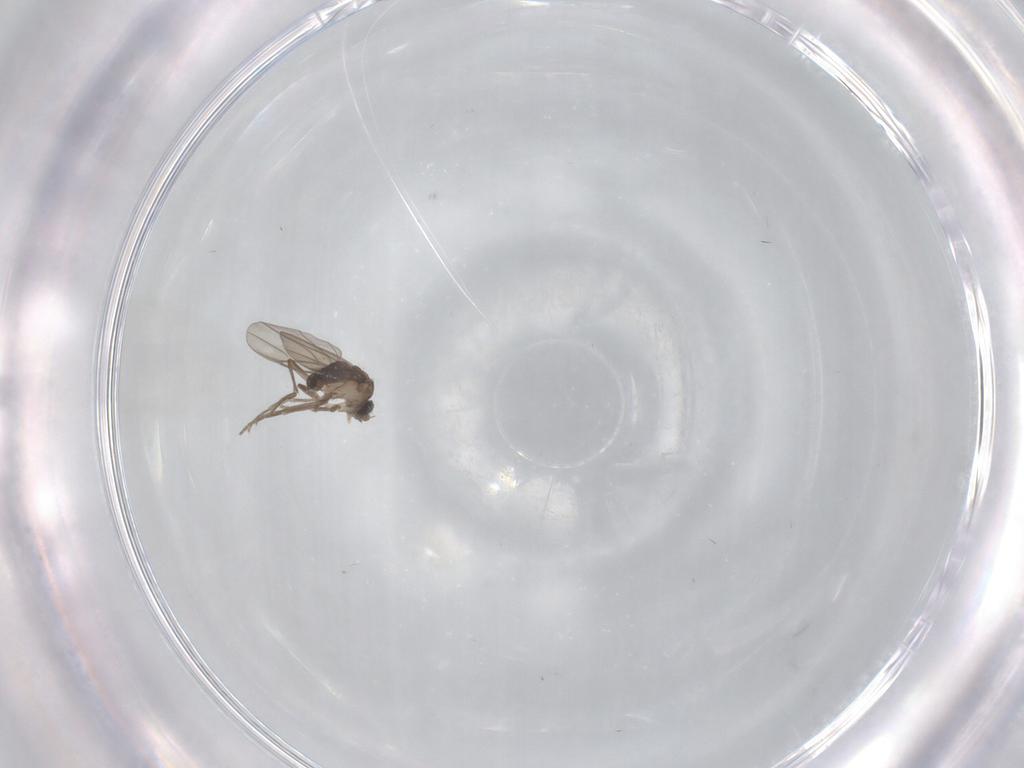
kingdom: Animalia
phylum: Arthropoda
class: Insecta
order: Diptera
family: Phoridae
